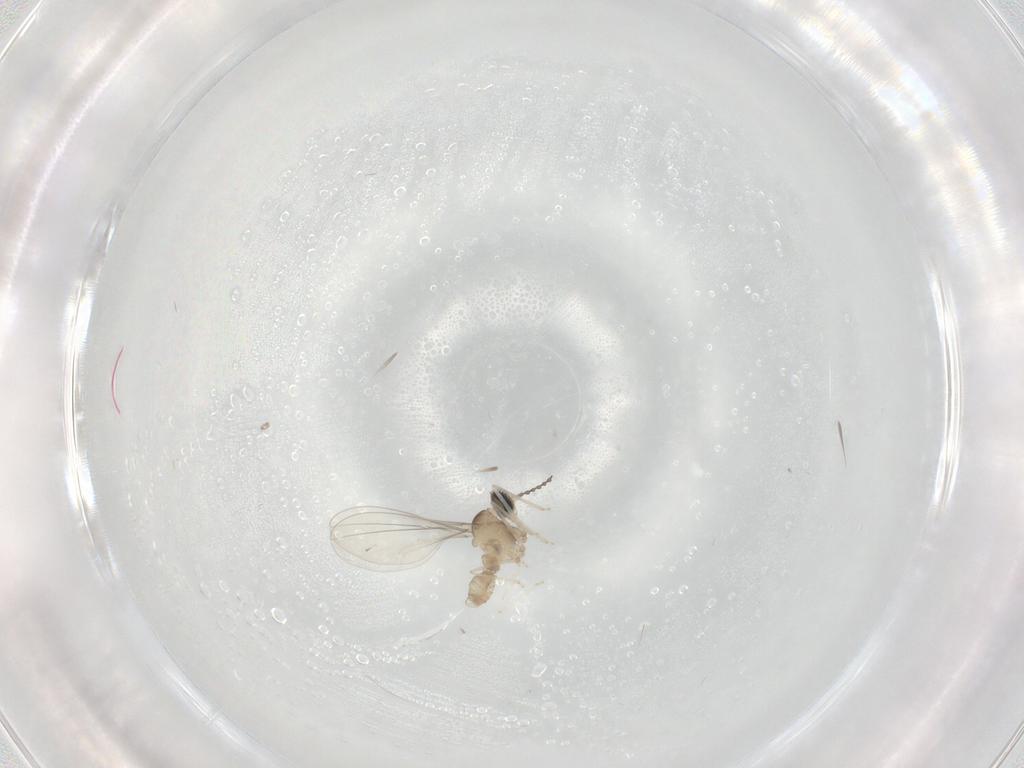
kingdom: Animalia
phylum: Arthropoda
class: Insecta
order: Diptera
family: Cecidomyiidae
